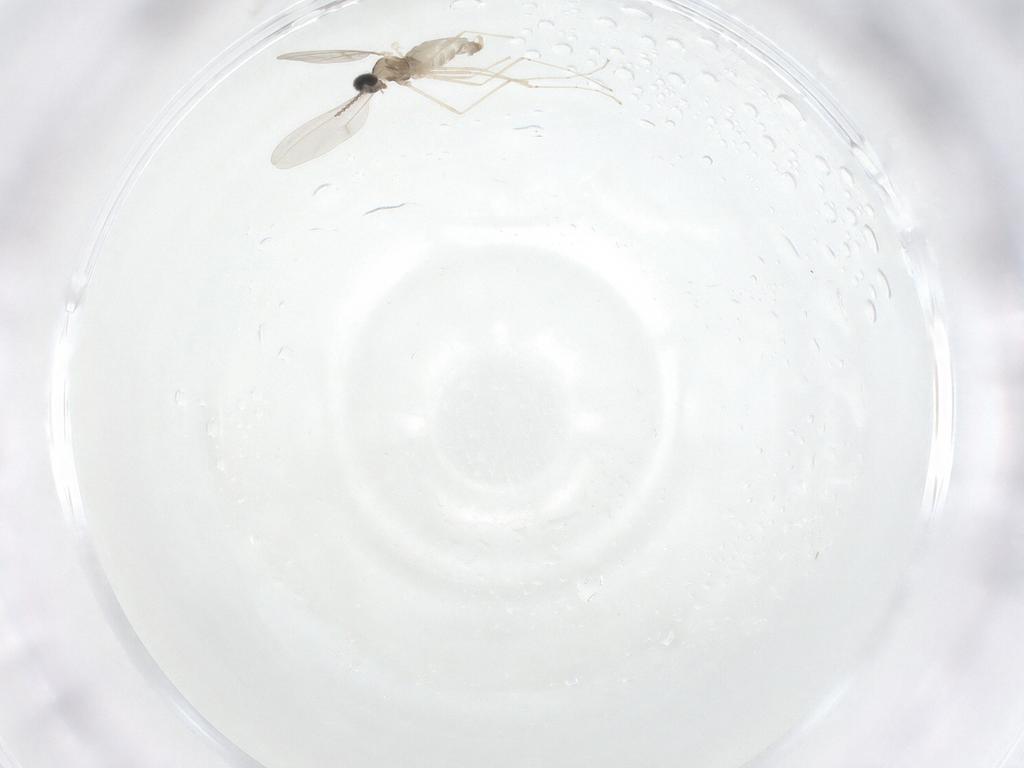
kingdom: Animalia
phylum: Arthropoda
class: Insecta
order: Diptera
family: Cecidomyiidae
